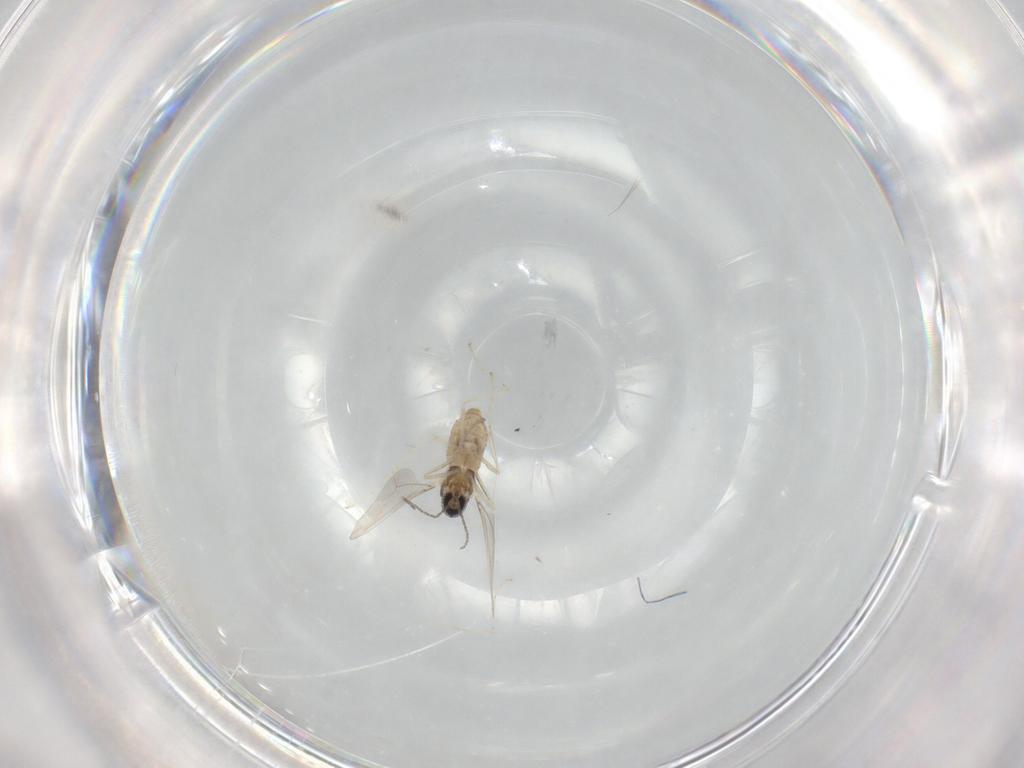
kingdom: Animalia
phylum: Arthropoda
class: Insecta
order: Diptera
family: Cecidomyiidae
